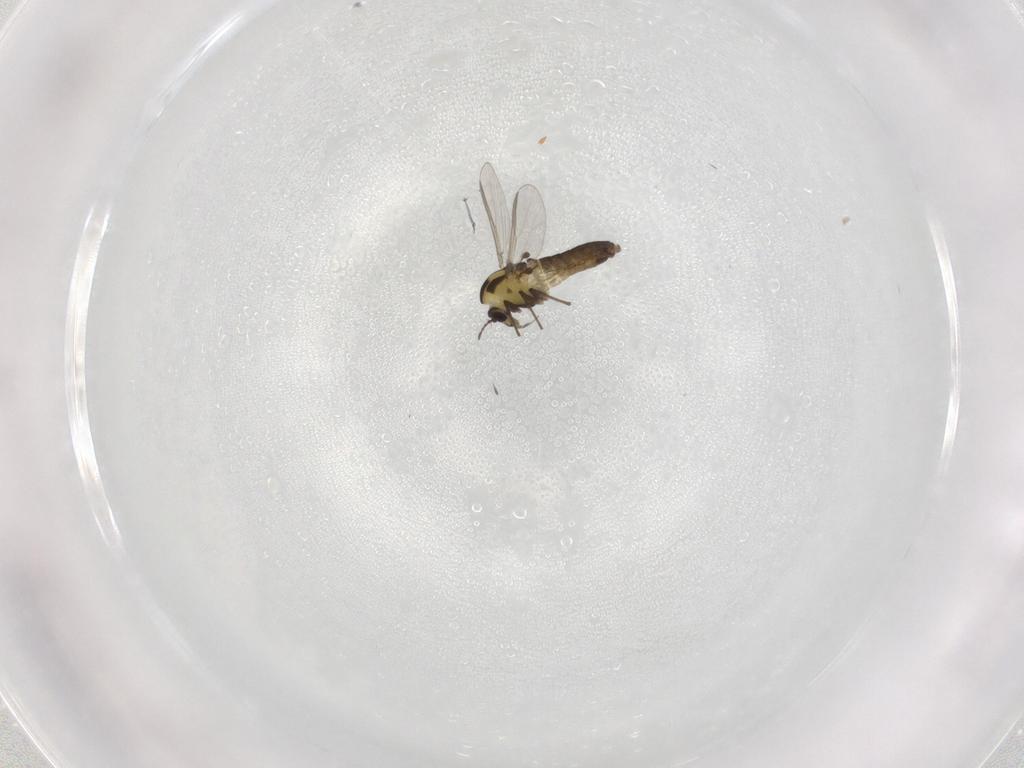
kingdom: Animalia
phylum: Arthropoda
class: Insecta
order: Diptera
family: Chironomidae
